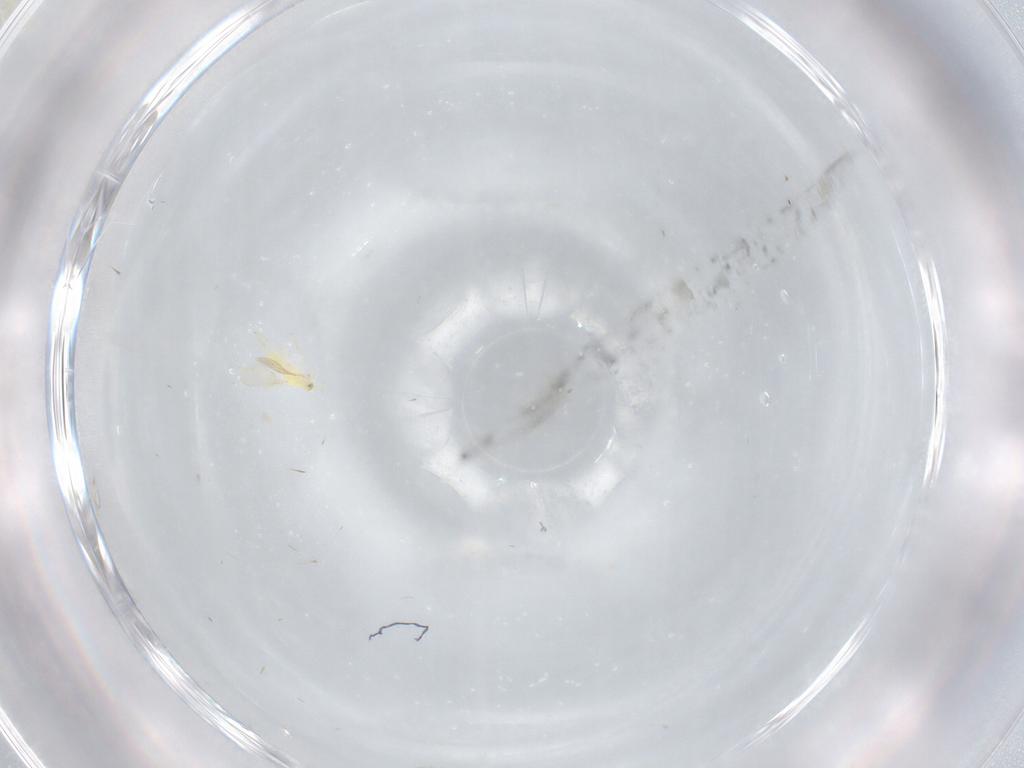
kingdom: Animalia
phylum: Arthropoda
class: Insecta
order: Hymenoptera
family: Aphelinidae
